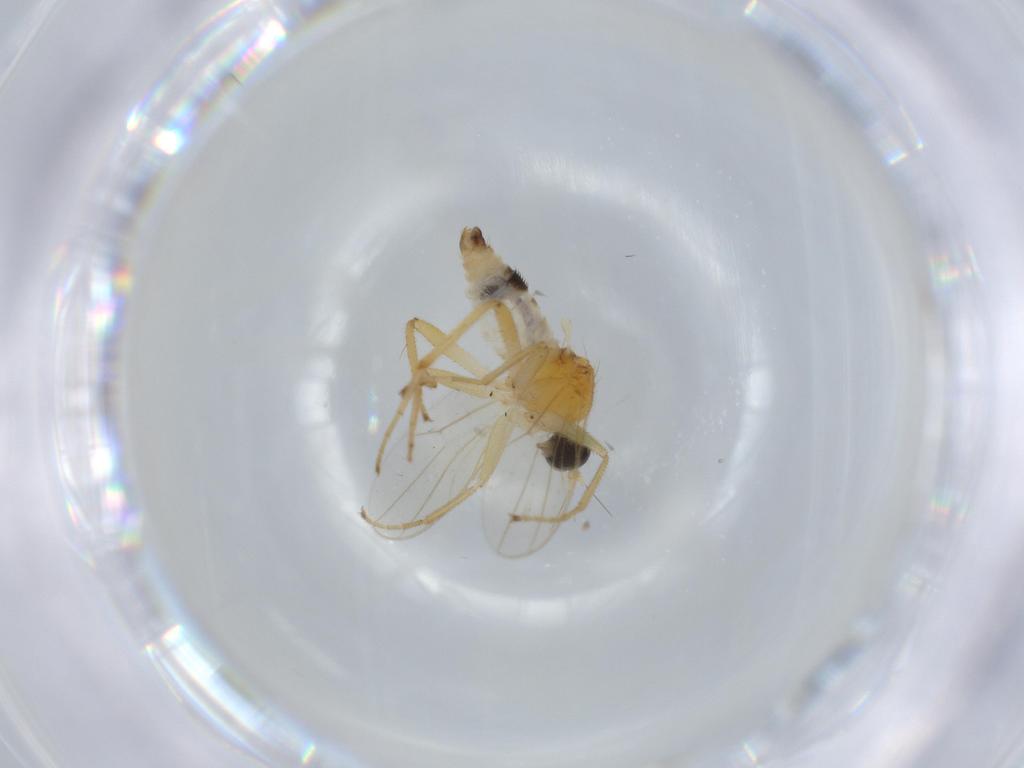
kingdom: Animalia
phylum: Arthropoda
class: Insecta
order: Diptera
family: Hybotidae
